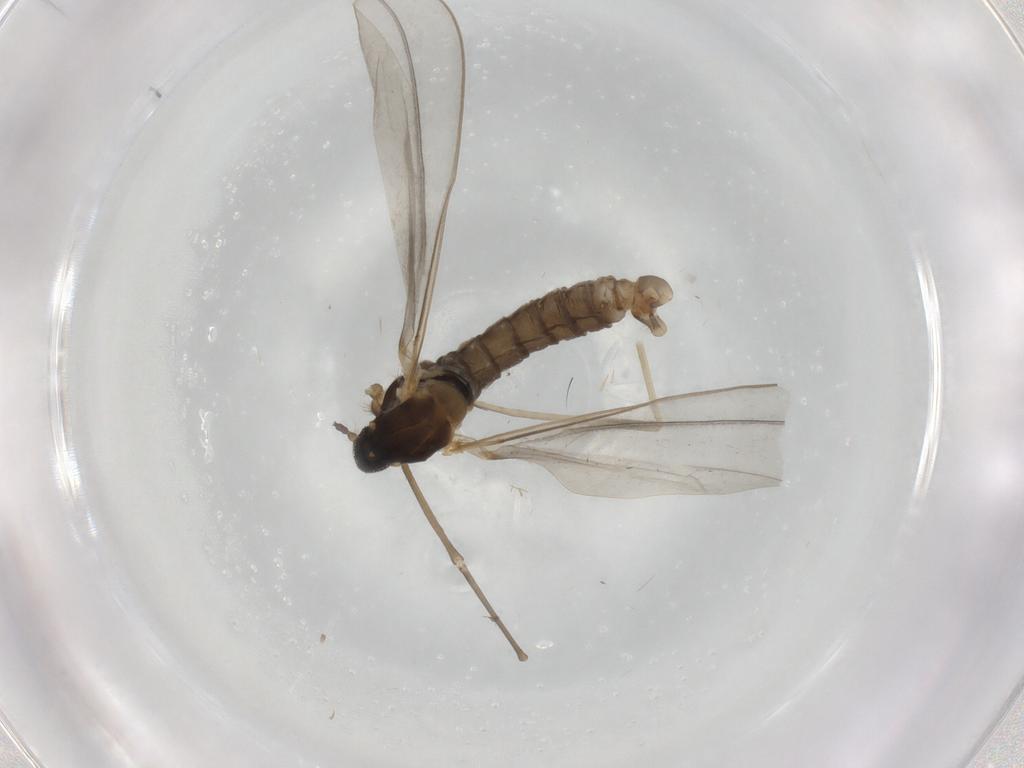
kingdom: Animalia
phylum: Arthropoda
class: Insecta
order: Diptera
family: Cecidomyiidae
